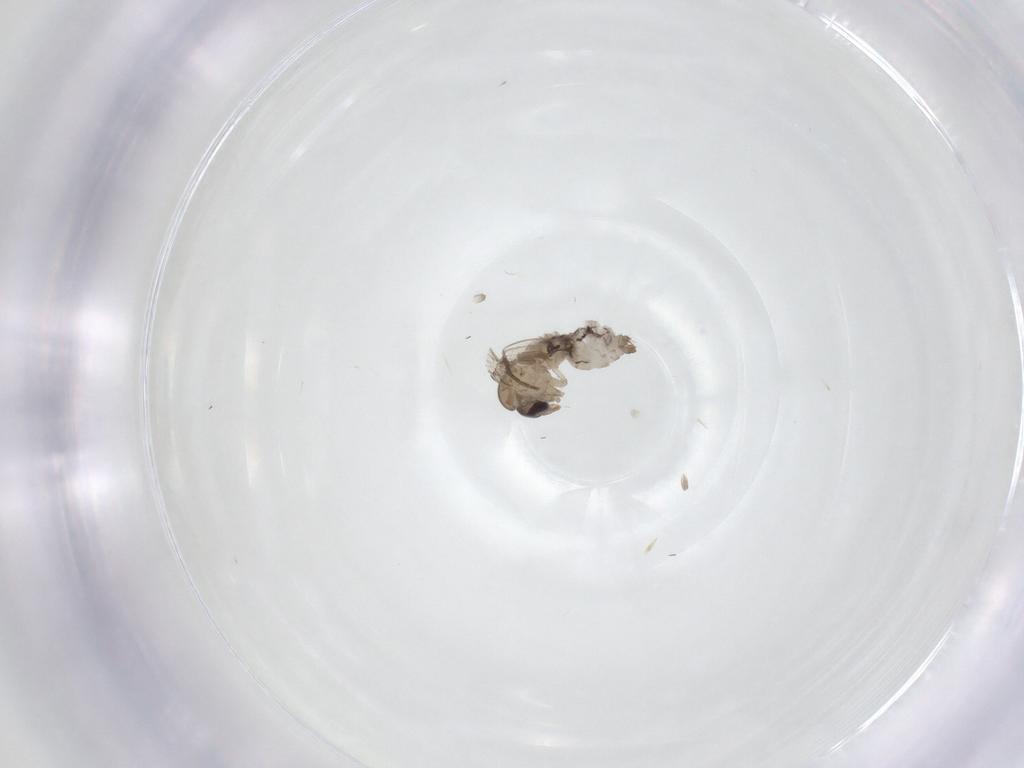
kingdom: Animalia
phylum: Arthropoda
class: Insecta
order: Diptera
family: Psychodidae
